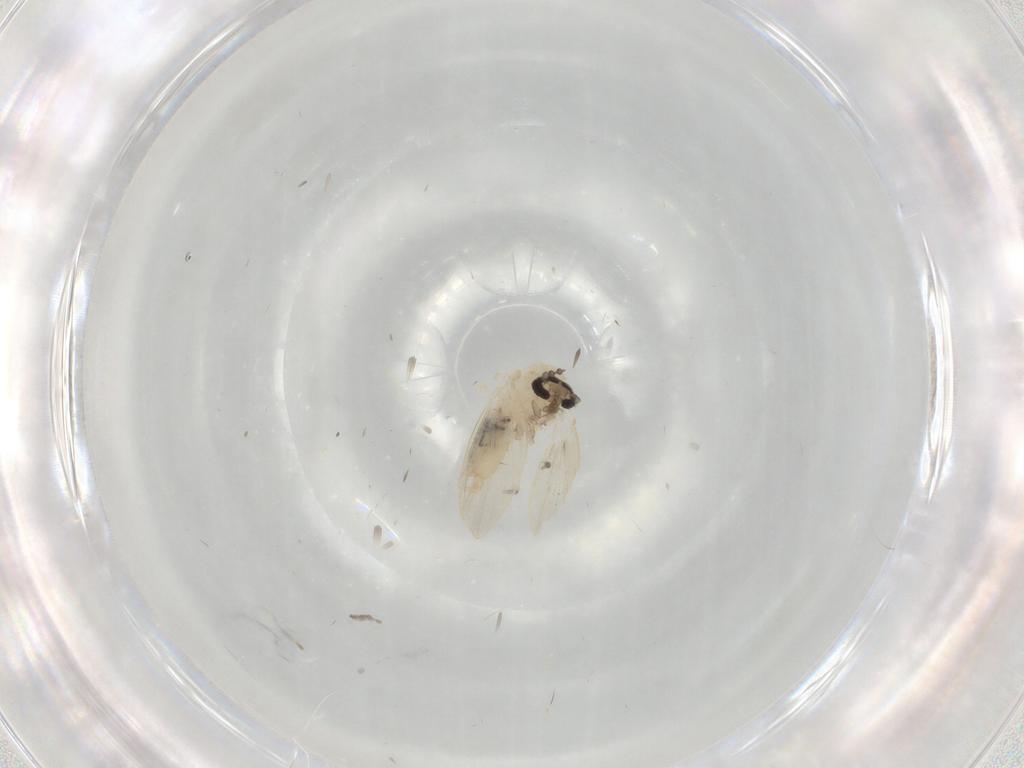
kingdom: Animalia
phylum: Arthropoda
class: Insecta
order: Diptera
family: Psychodidae
